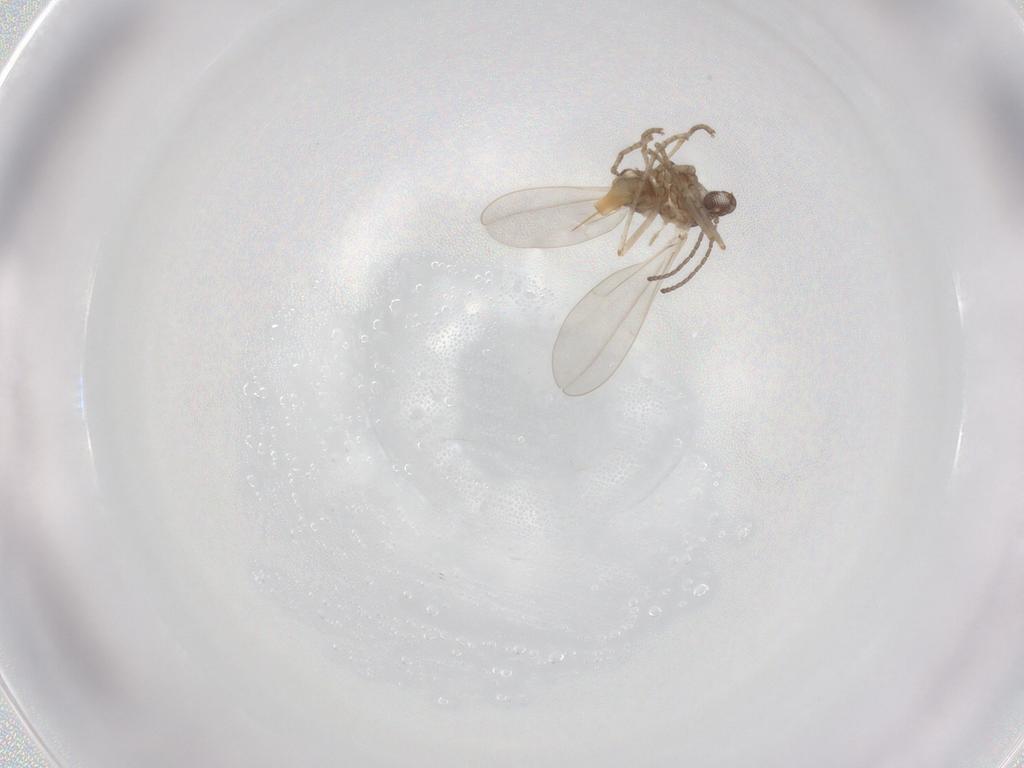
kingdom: Animalia
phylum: Arthropoda
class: Insecta
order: Diptera
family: Cecidomyiidae
